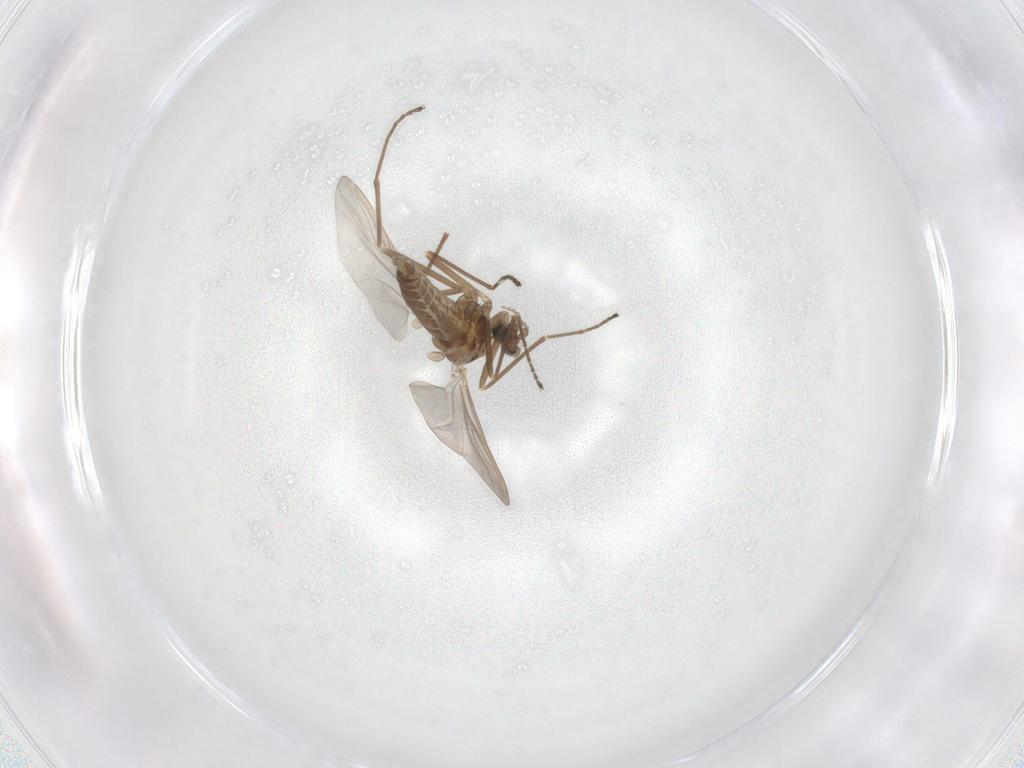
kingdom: Animalia
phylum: Arthropoda
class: Insecta
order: Diptera
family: Cecidomyiidae
